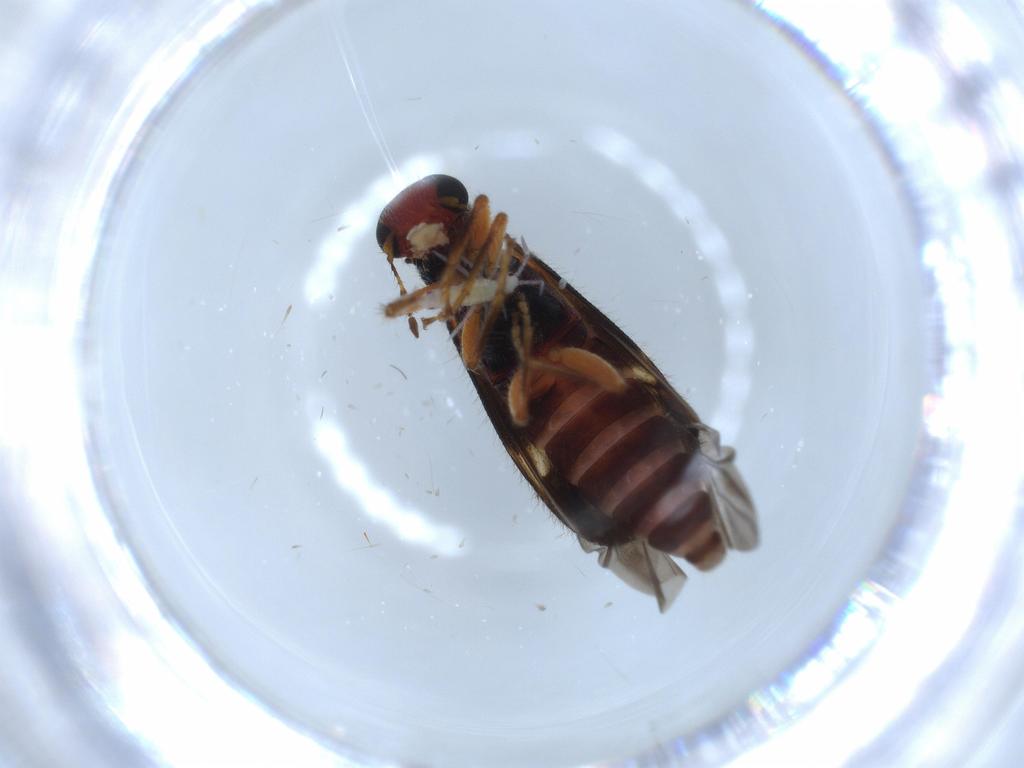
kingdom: Animalia
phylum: Arthropoda
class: Insecta
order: Coleoptera
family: Cleridae
